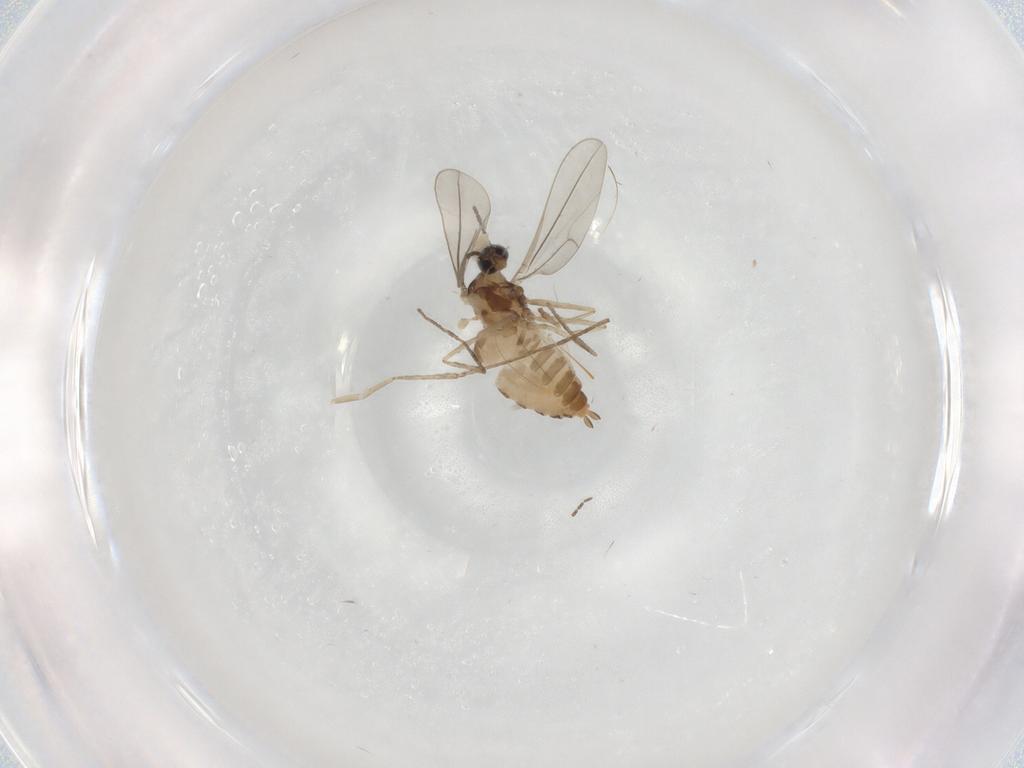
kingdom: Animalia
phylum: Arthropoda
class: Insecta
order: Diptera
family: Cecidomyiidae
